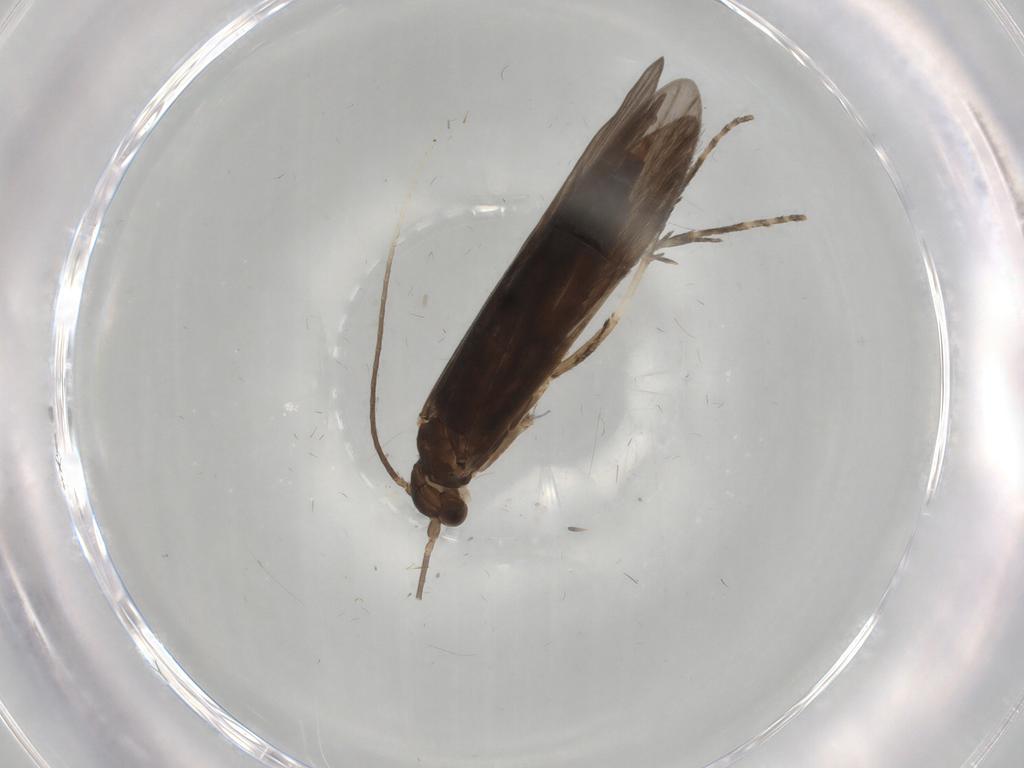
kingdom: Animalia
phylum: Arthropoda
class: Insecta
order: Trichoptera
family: Xiphocentronidae
